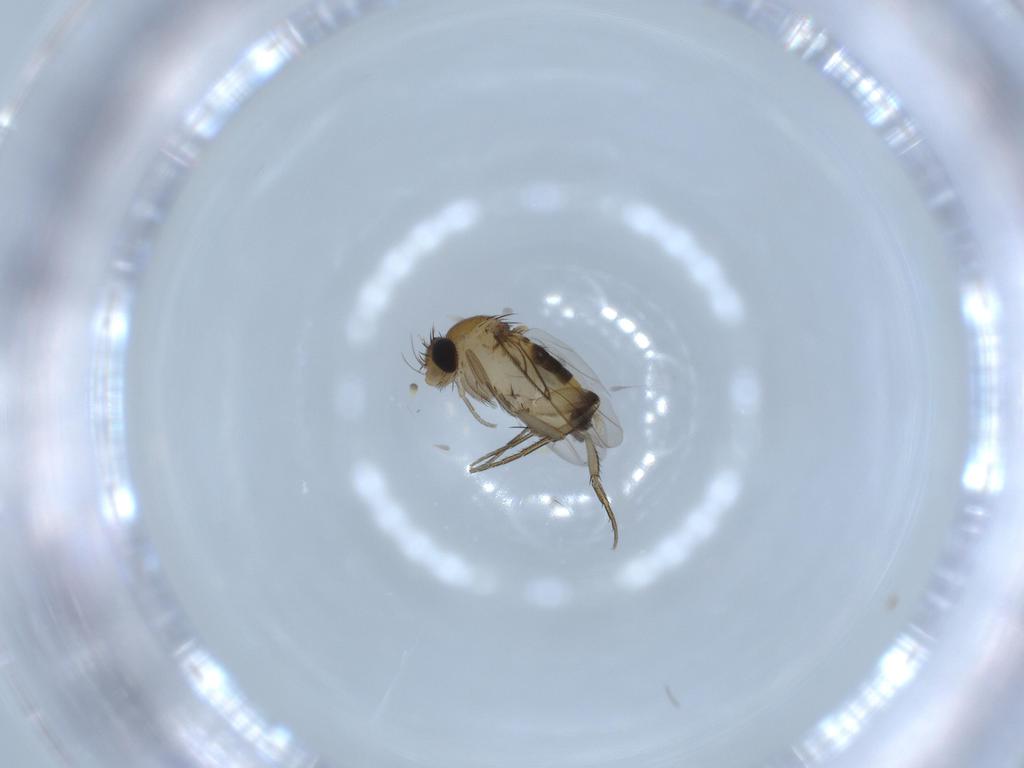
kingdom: Animalia
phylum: Arthropoda
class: Insecta
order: Diptera
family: Phoridae
